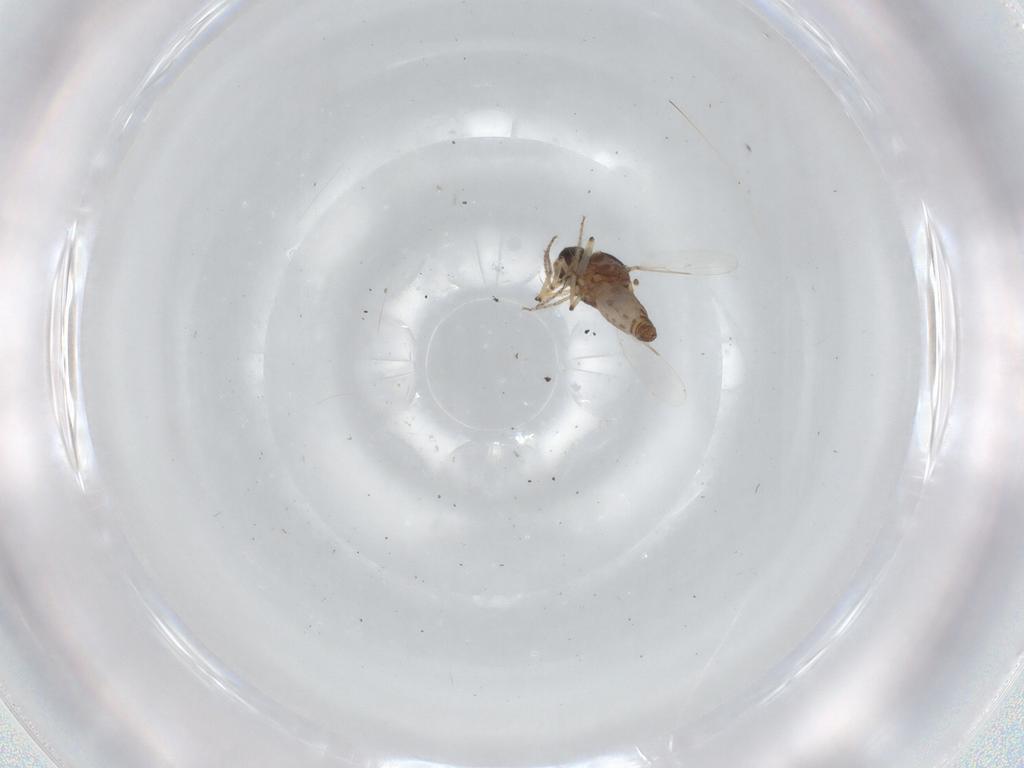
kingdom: Animalia
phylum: Arthropoda
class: Insecta
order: Diptera
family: Ceratopogonidae
